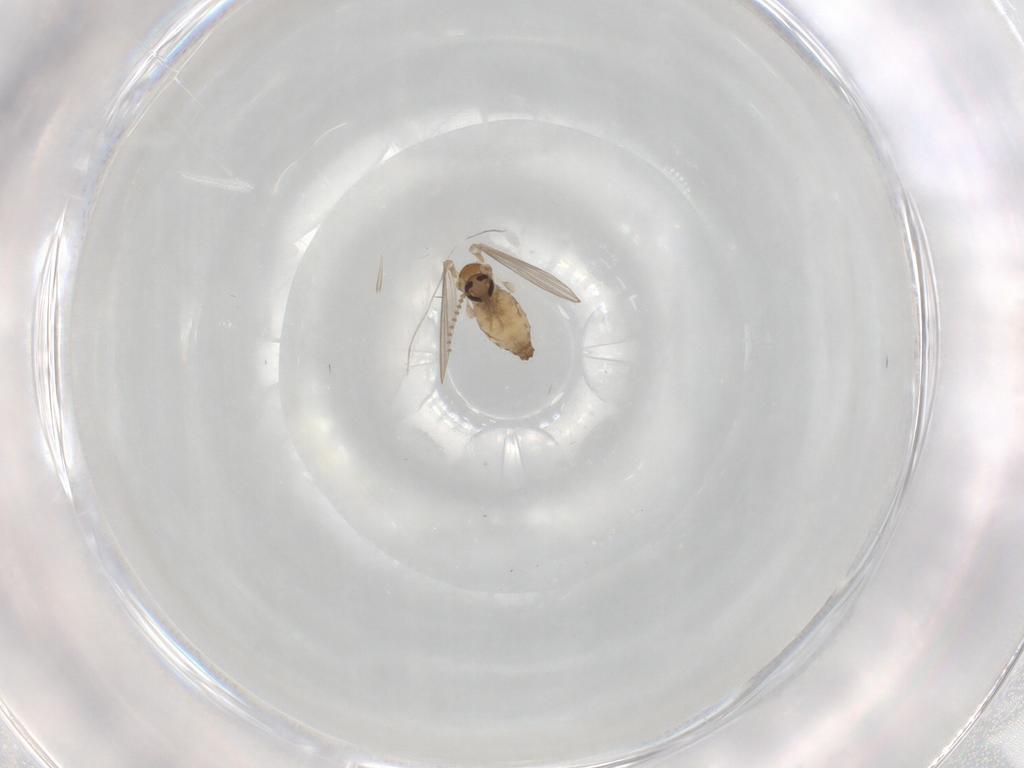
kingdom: Animalia
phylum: Arthropoda
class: Insecta
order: Diptera
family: Psychodidae
